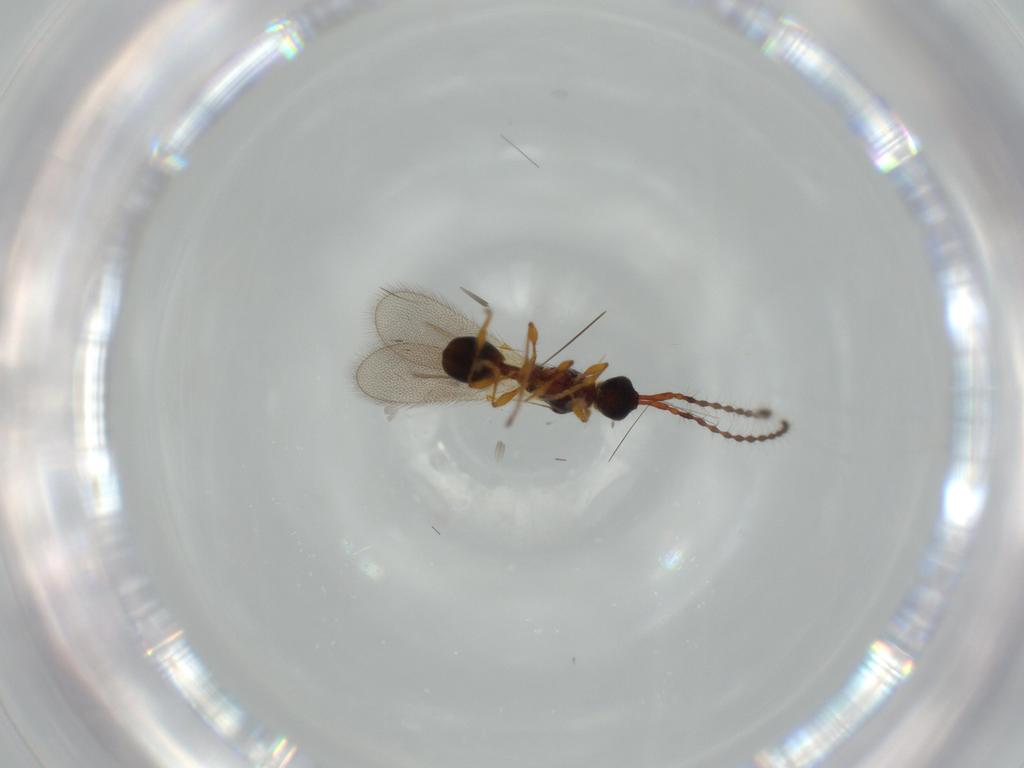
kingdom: Animalia
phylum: Arthropoda
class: Insecta
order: Hymenoptera
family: Diapriidae
